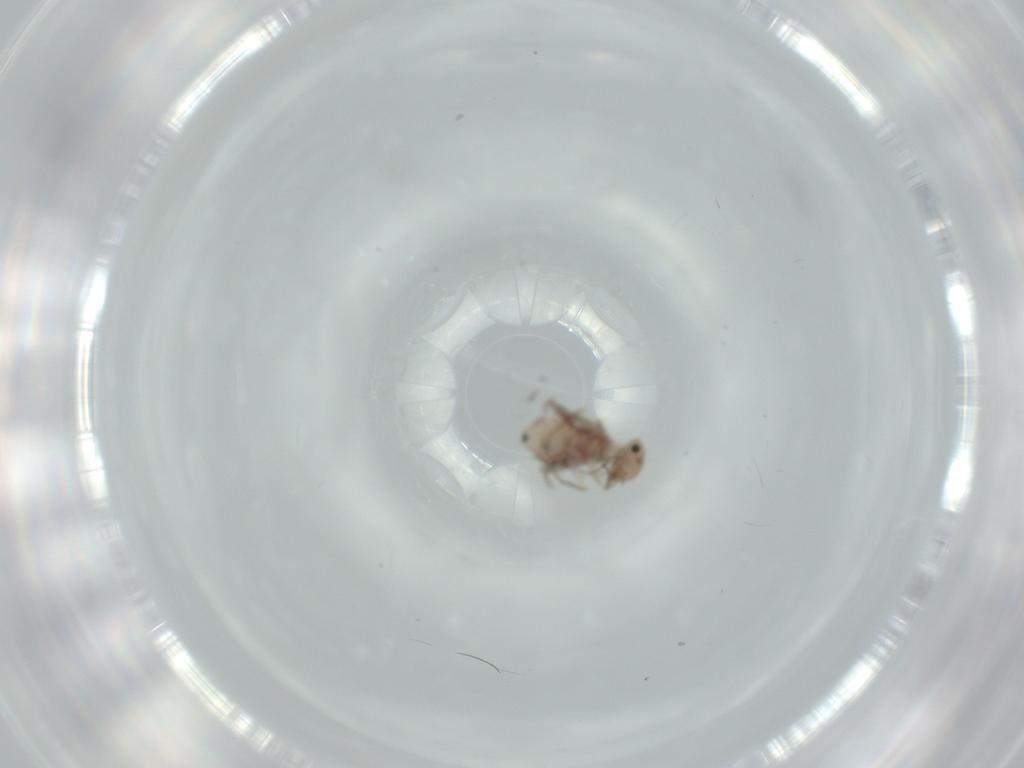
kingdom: Animalia
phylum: Arthropoda
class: Insecta
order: Psocodea
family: Ectopsocidae
